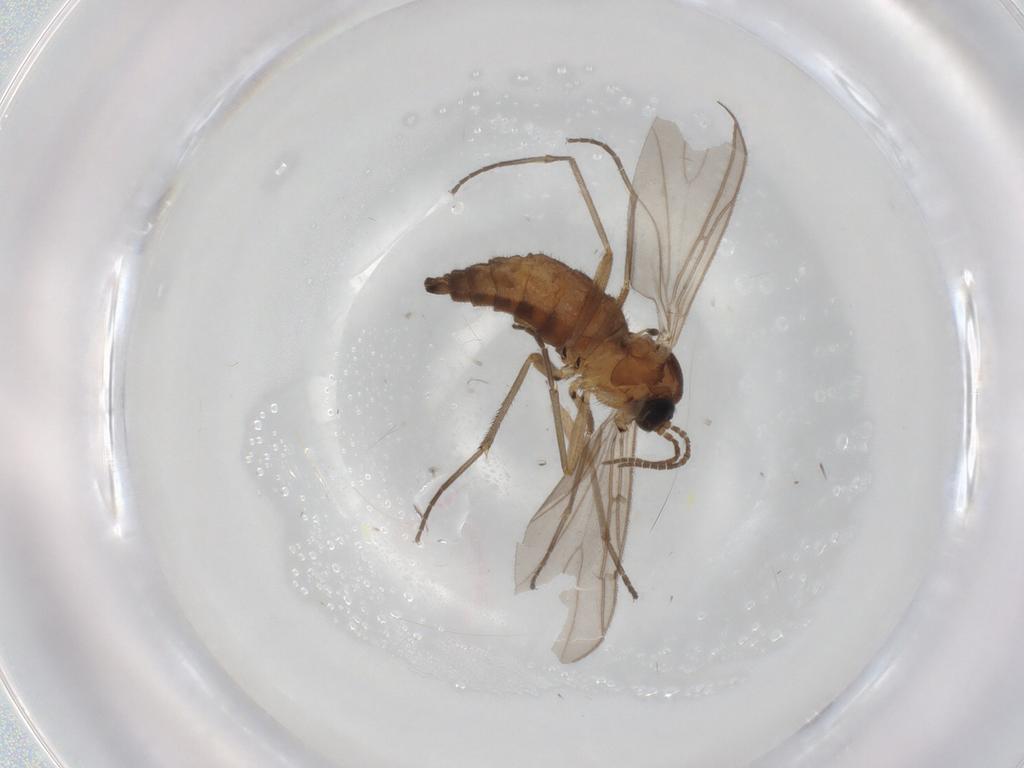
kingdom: Animalia
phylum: Arthropoda
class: Insecta
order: Diptera
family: Sciaridae
